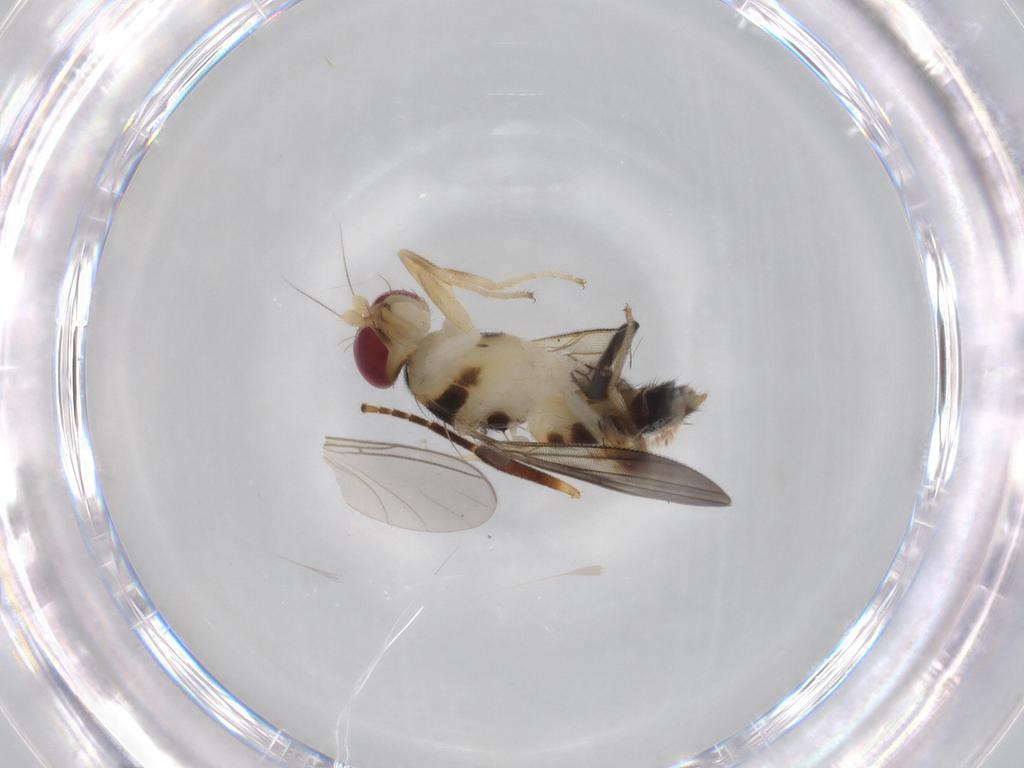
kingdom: Animalia
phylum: Arthropoda
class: Insecta
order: Diptera
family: Clusiidae
